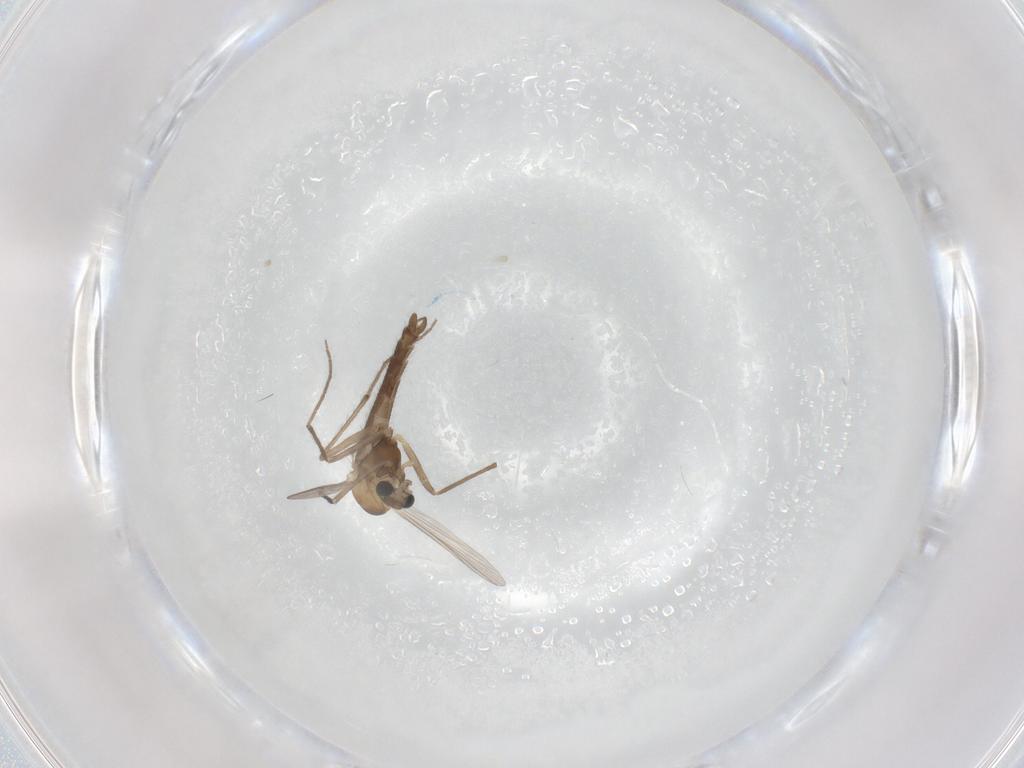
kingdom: Animalia
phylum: Arthropoda
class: Insecta
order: Diptera
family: Chironomidae
